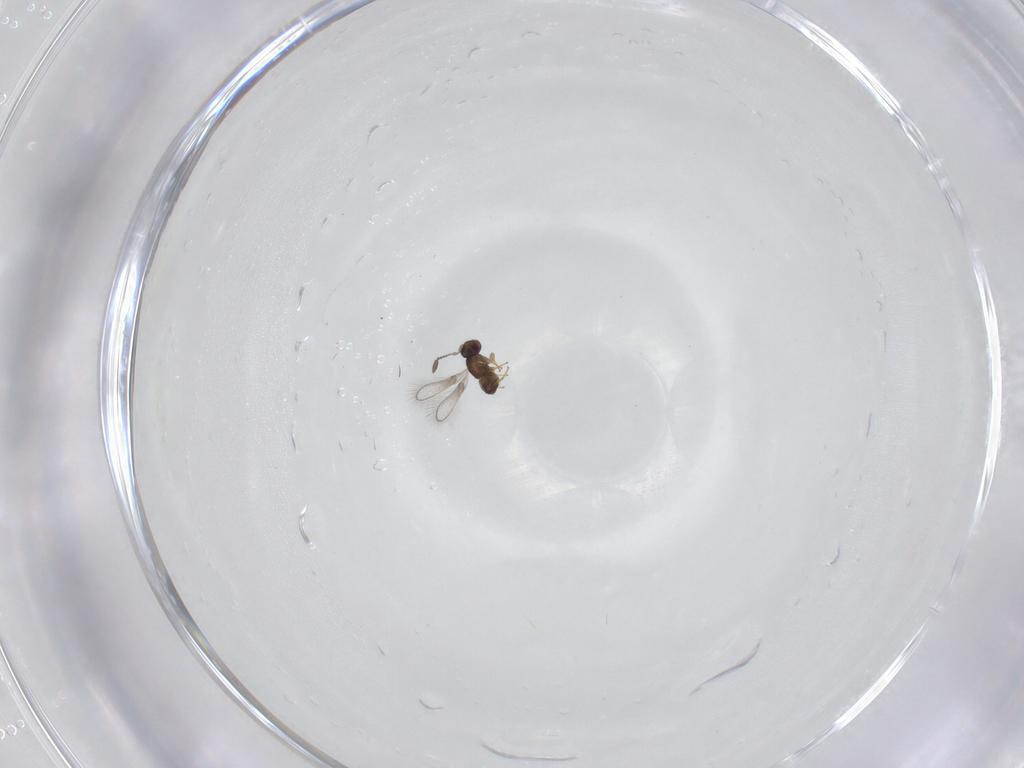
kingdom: Animalia
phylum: Arthropoda
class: Insecta
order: Hymenoptera
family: Mymaridae
